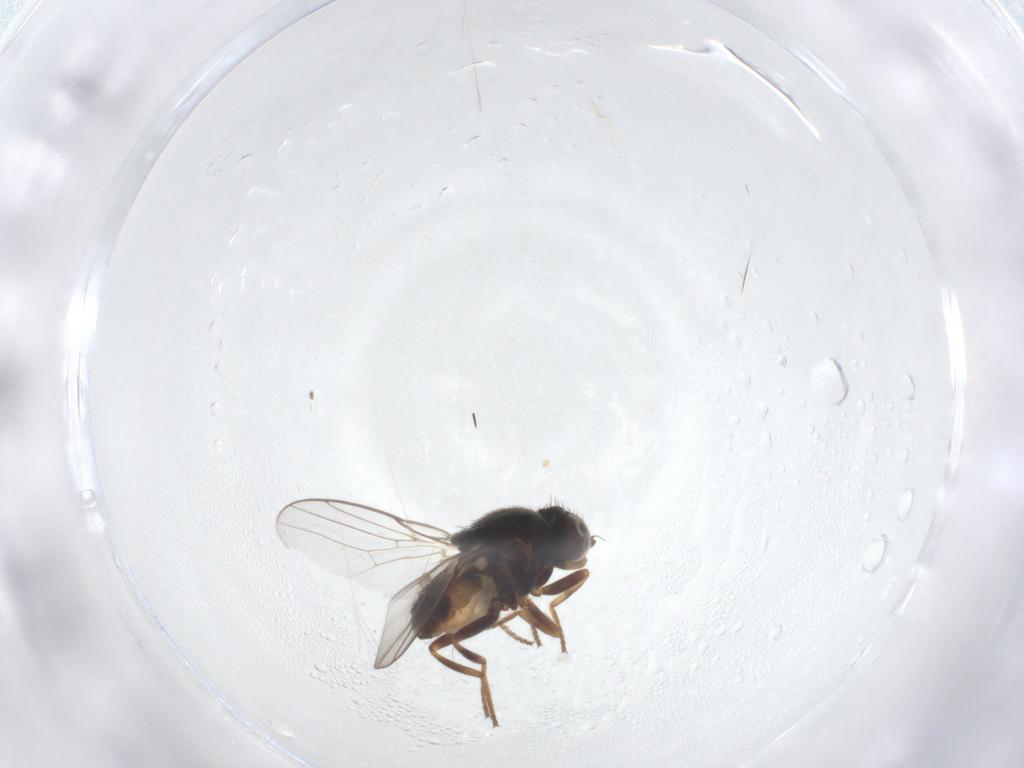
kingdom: Animalia
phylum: Arthropoda
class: Insecta
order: Diptera
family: Chloropidae
